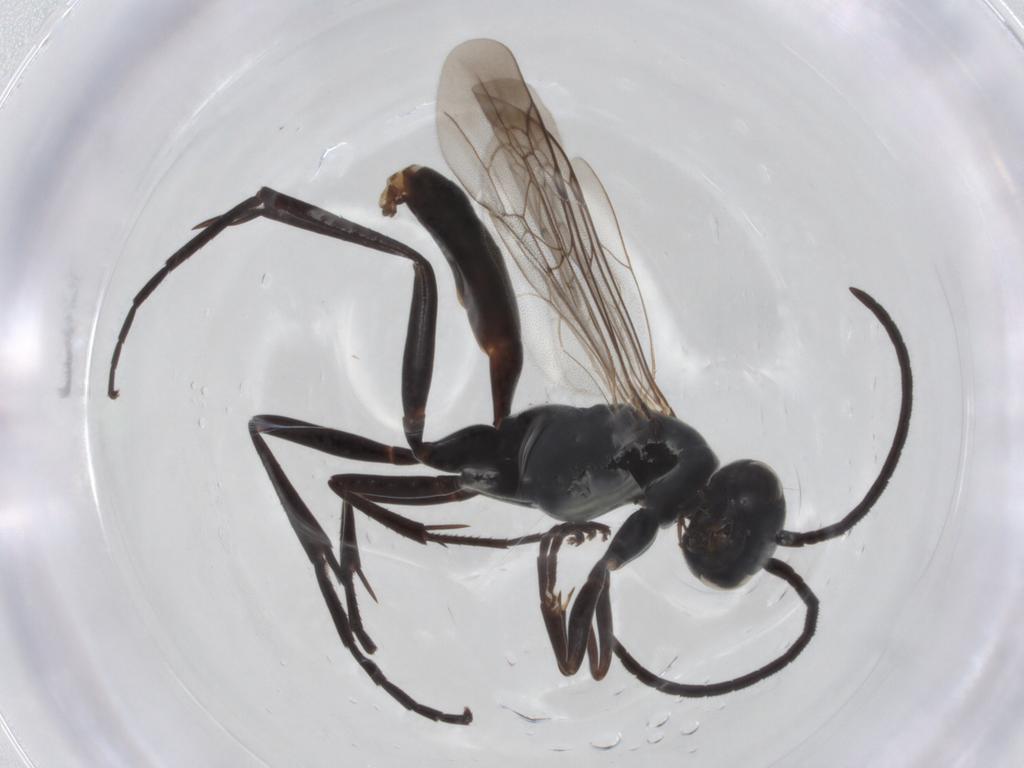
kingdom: Animalia
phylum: Arthropoda
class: Insecta
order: Hymenoptera
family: Pompilidae
